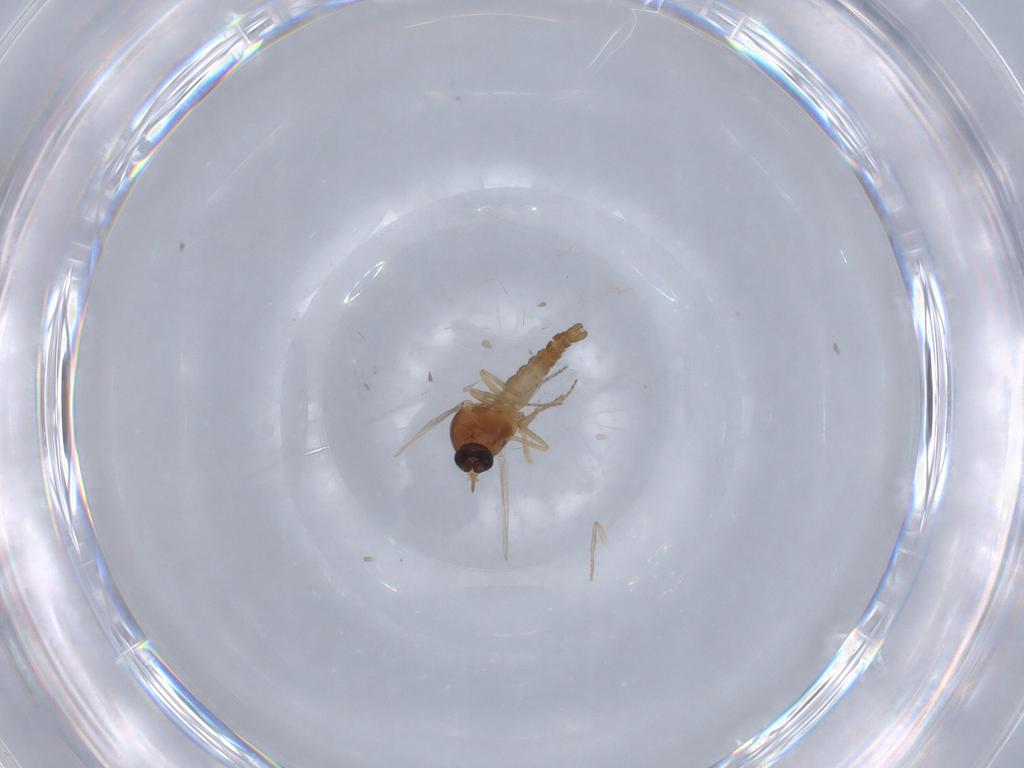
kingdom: Animalia
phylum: Arthropoda
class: Insecta
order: Diptera
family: Ceratopogonidae
